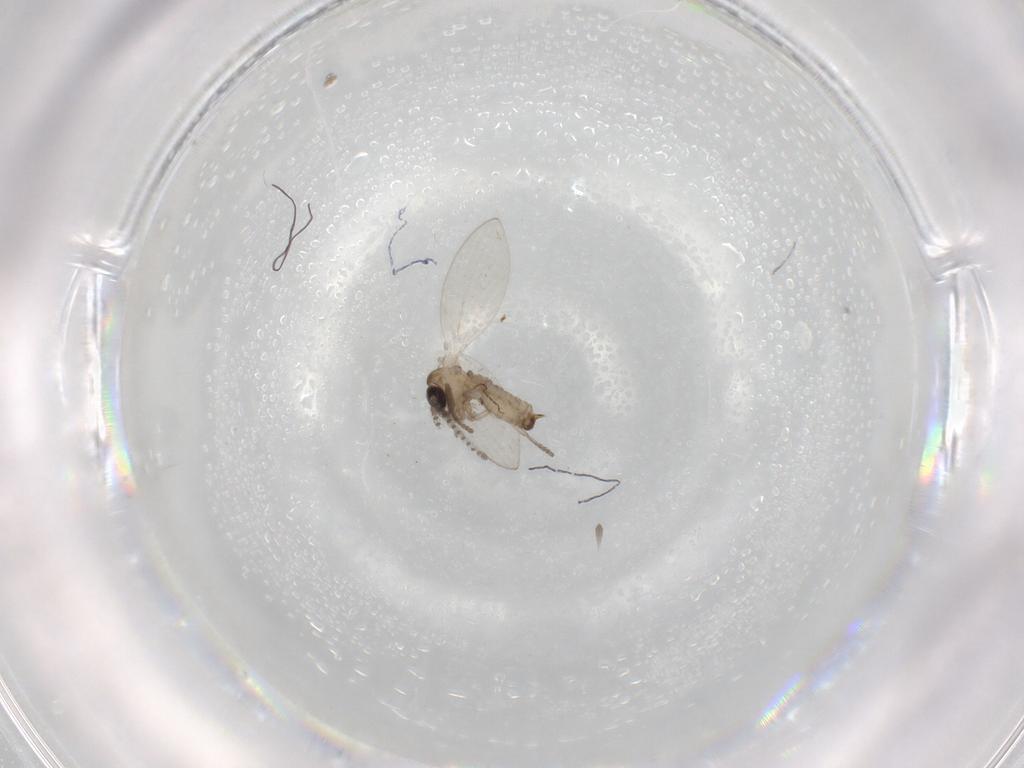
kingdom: Animalia
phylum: Arthropoda
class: Insecta
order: Diptera
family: Psychodidae
